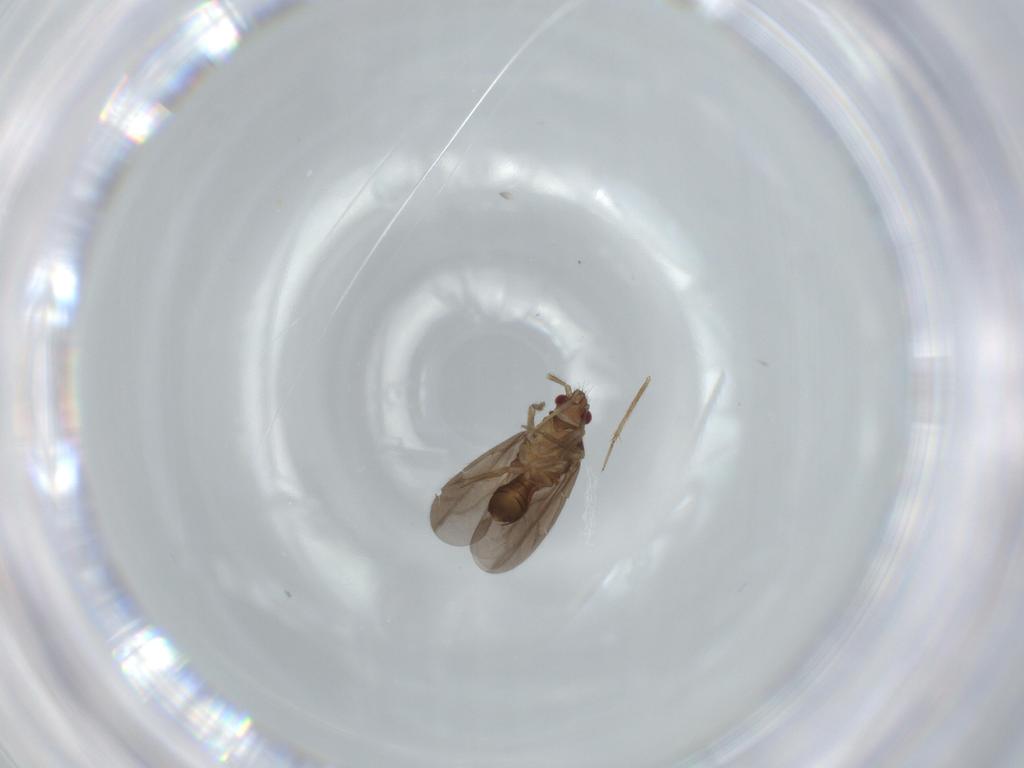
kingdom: Animalia
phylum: Arthropoda
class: Insecta
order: Hemiptera
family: Ceratocombidae
